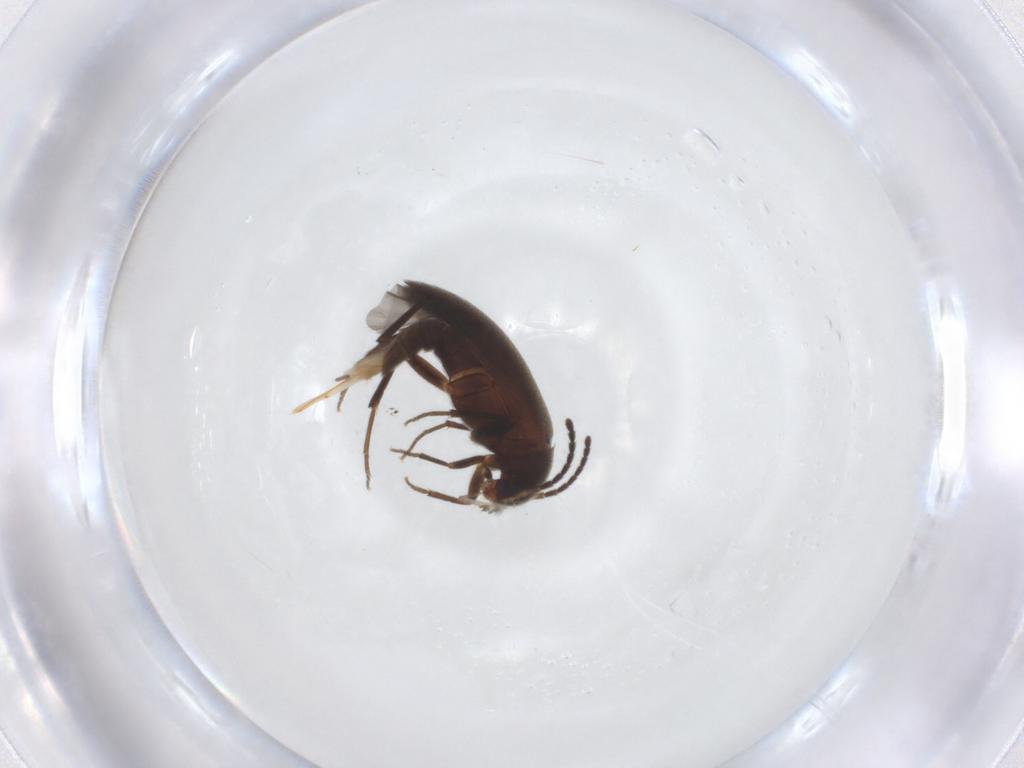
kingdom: Animalia
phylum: Arthropoda
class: Insecta
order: Coleoptera
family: Melandryidae
